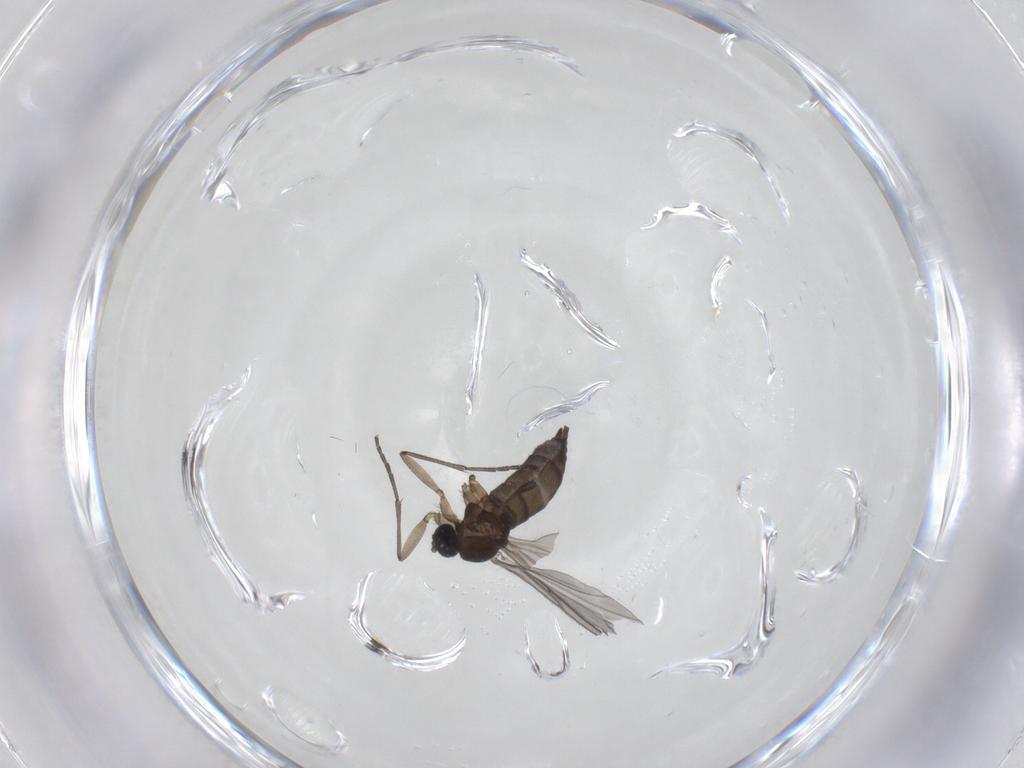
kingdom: Animalia
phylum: Arthropoda
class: Insecta
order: Diptera
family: Sciaridae
